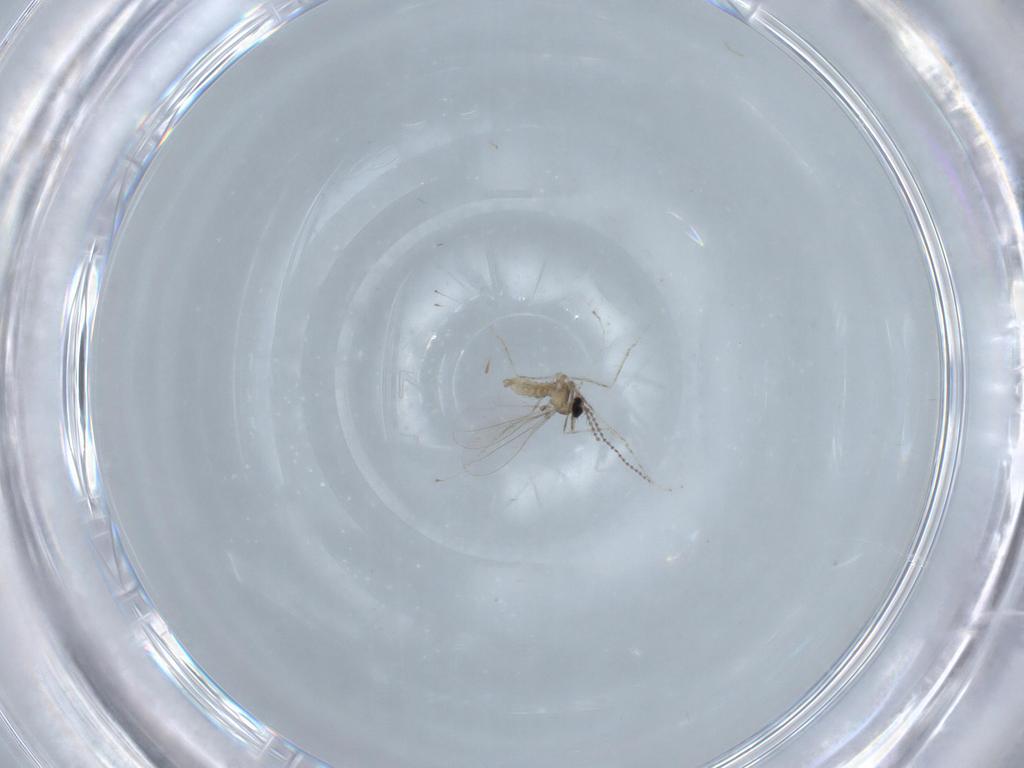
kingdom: Animalia
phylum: Arthropoda
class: Insecta
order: Diptera
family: Cecidomyiidae
